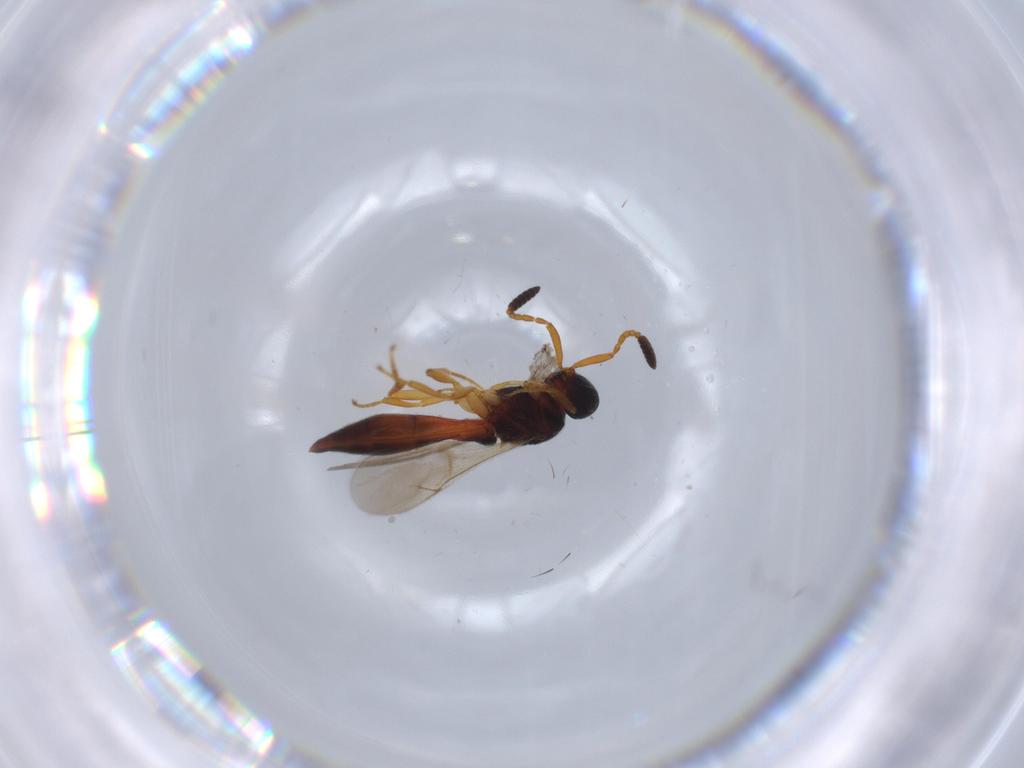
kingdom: Animalia
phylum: Arthropoda
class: Insecta
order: Hymenoptera
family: Scelionidae
